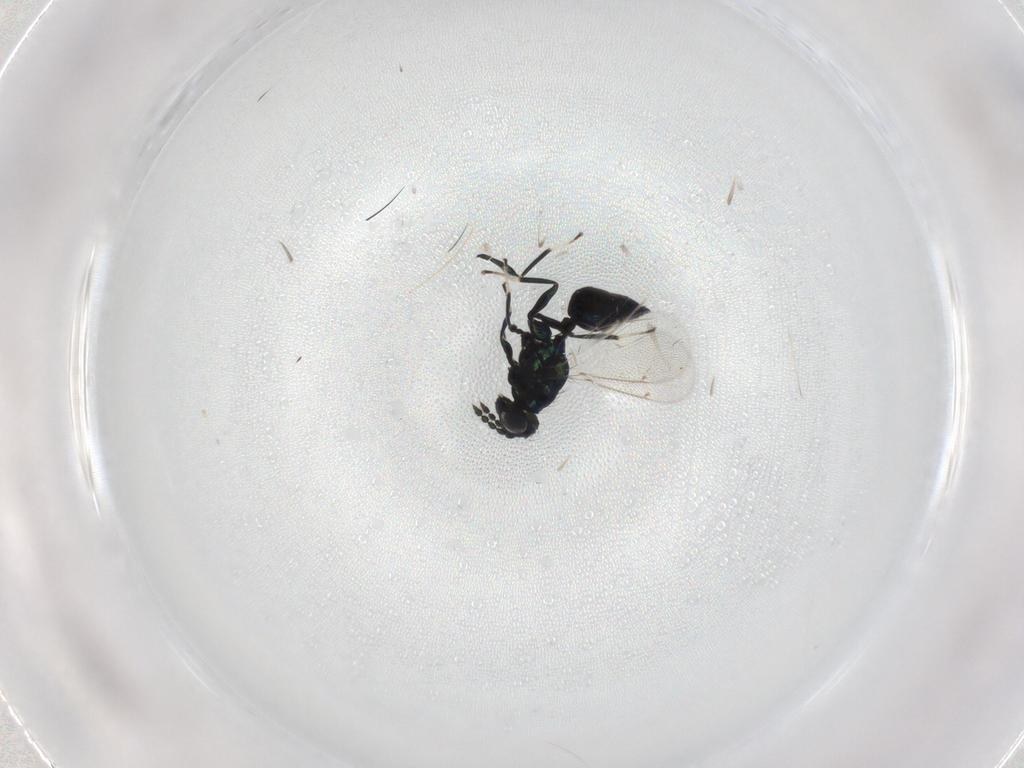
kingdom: Animalia
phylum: Arthropoda
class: Insecta
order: Hymenoptera
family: Eulophidae
